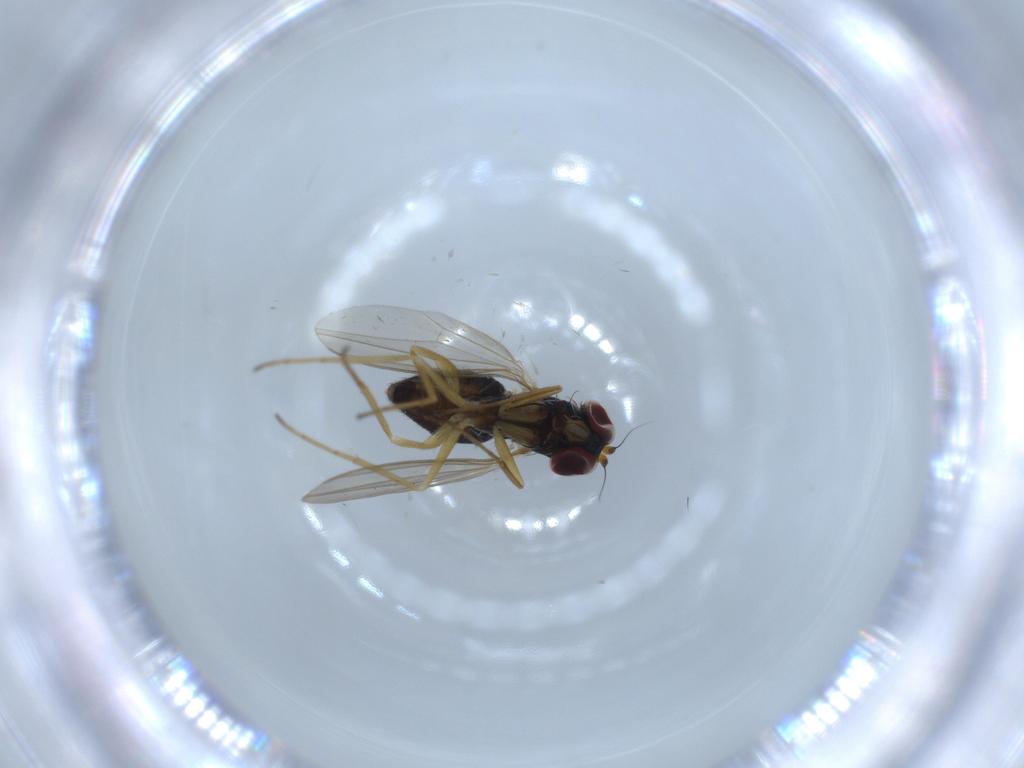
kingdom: Animalia
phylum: Arthropoda
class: Insecta
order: Diptera
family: Dolichopodidae
